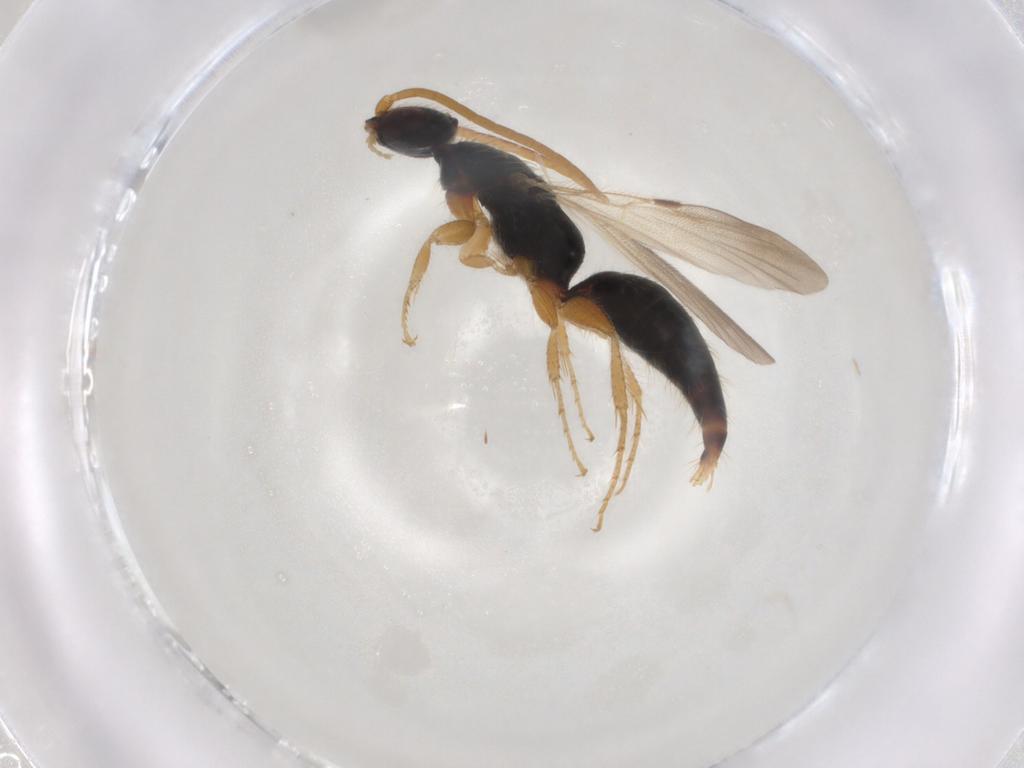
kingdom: Animalia
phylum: Arthropoda
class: Insecta
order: Hymenoptera
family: Bethylidae
